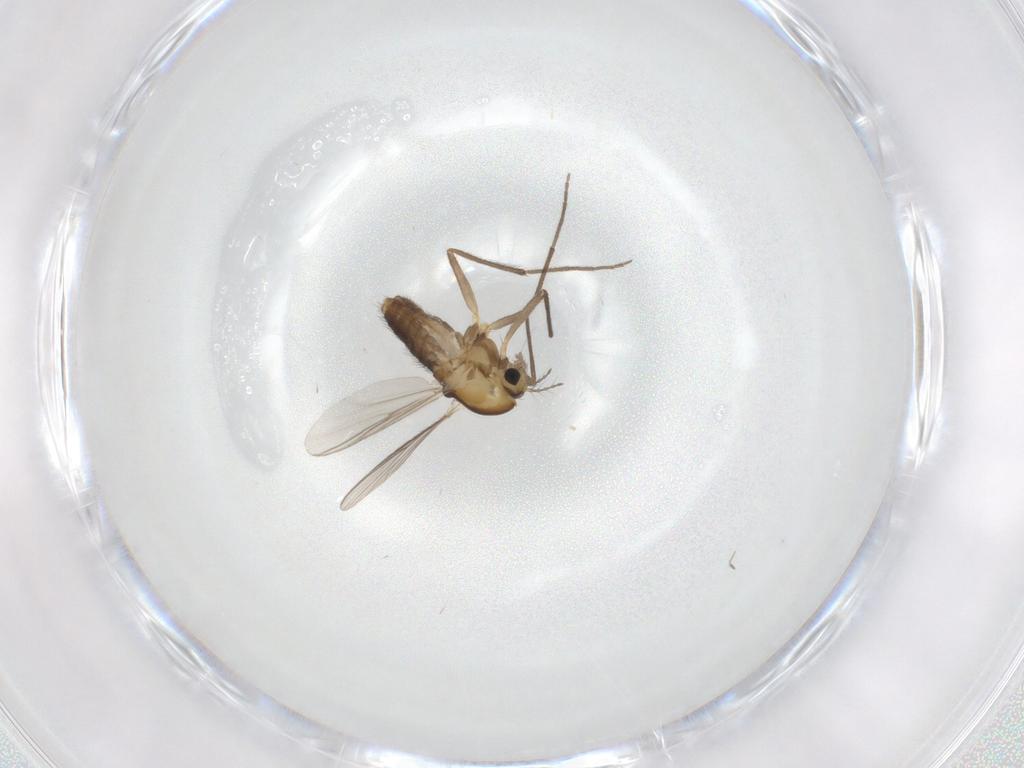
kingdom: Animalia
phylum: Arthropoda
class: Insecta
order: Diptera
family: Chironomidae
